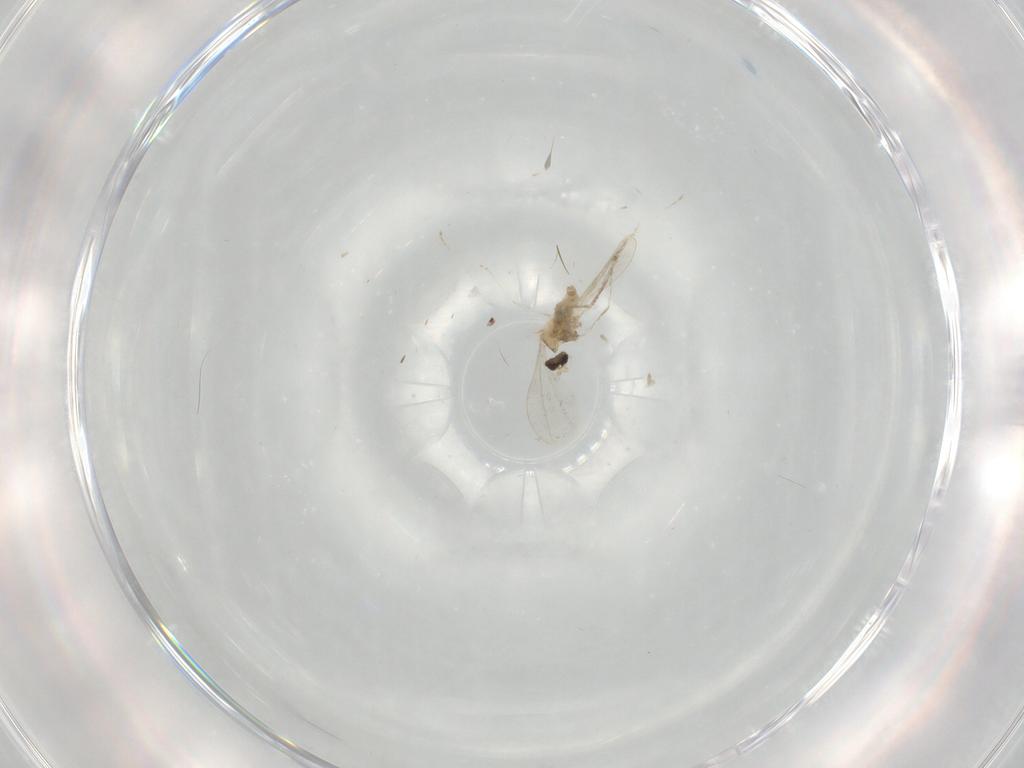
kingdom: Animalia
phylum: Arthropoda
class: Insecta
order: Diptera
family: Cecidomyiidae
